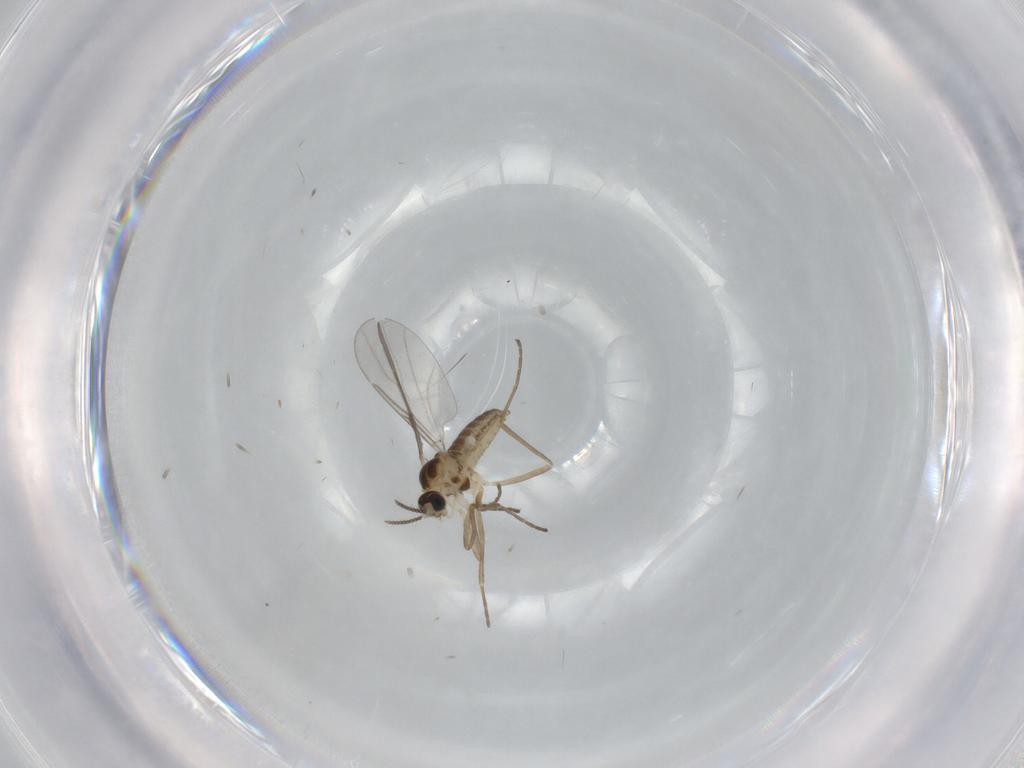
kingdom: Animalia
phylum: Arthropoda
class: Insecta
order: Diptera
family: Cecidomyiidae
